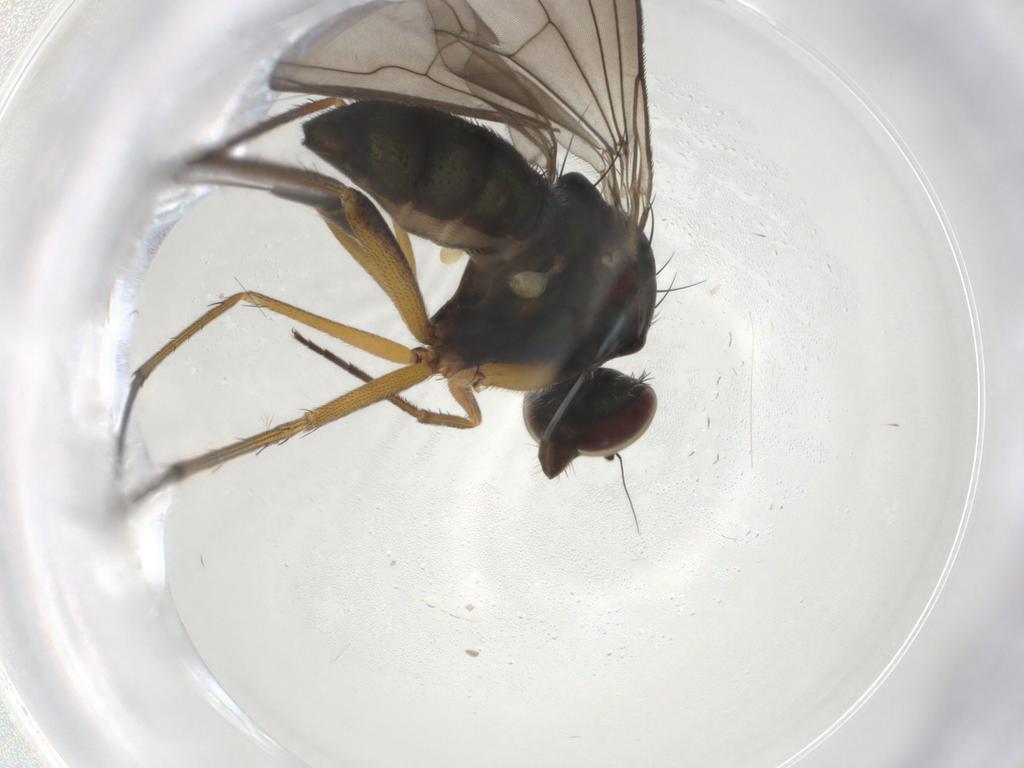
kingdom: Animalia
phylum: Arthropoda
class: Insecta
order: Diptera
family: Dolichopodidae
